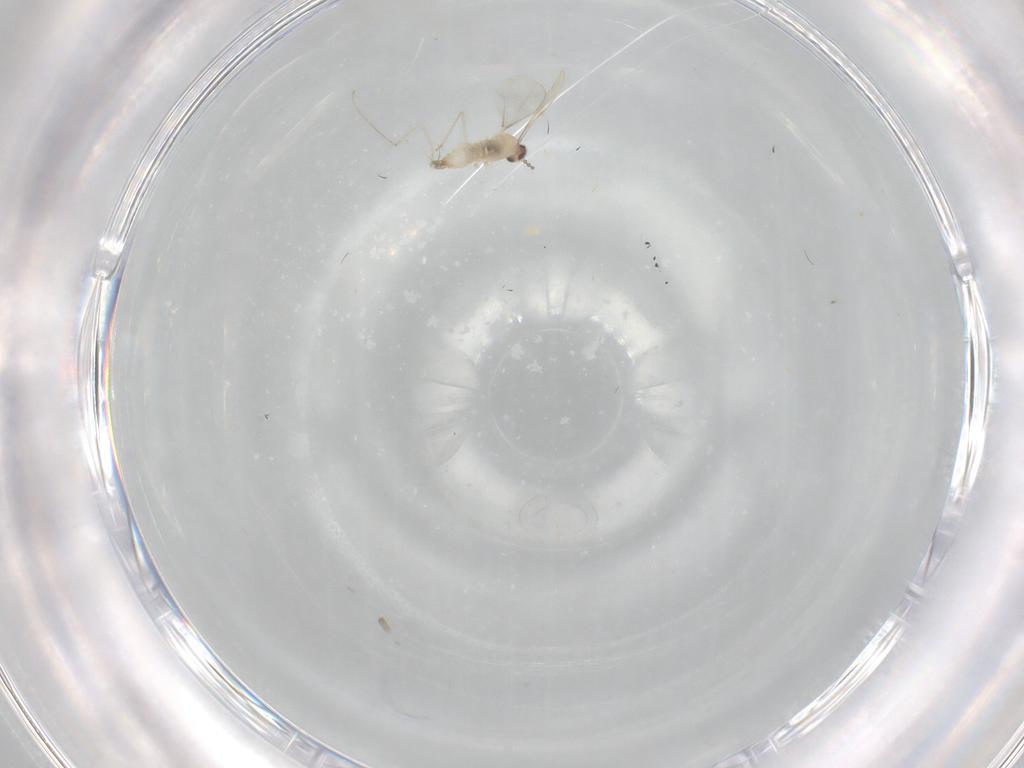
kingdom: Animalia
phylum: Arthropoda
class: Insecta
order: Diptera
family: Cecidomyiidae
